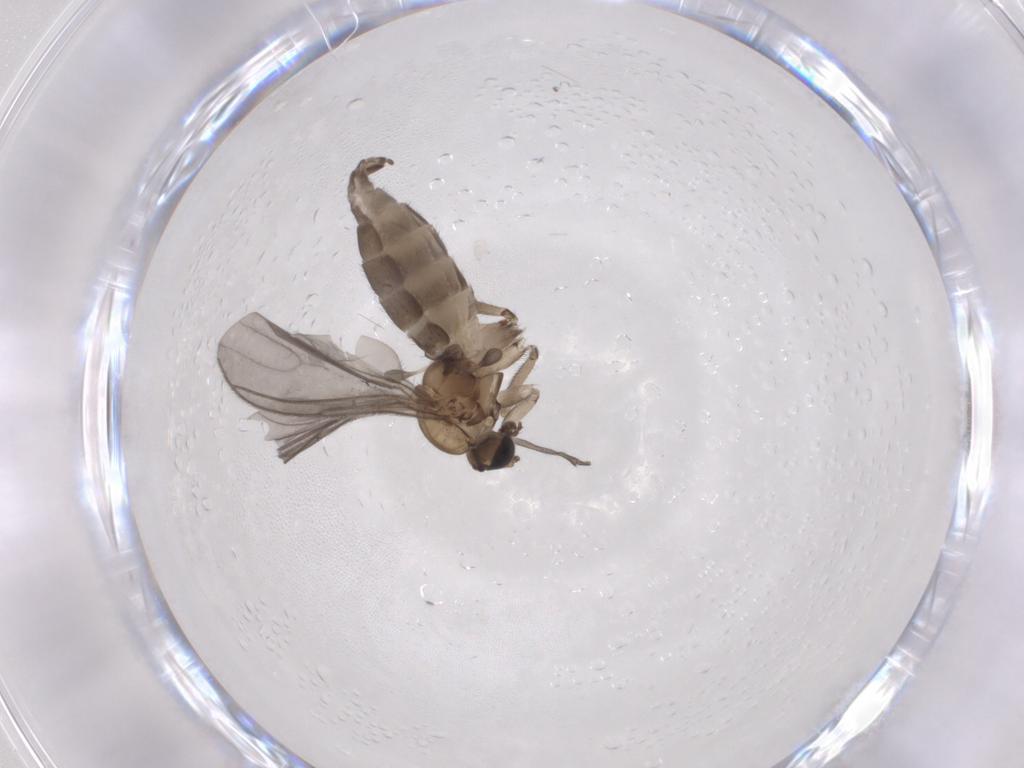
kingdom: Animalia
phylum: Arthropoda
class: Insecta
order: Diptera
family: Sciaridae
